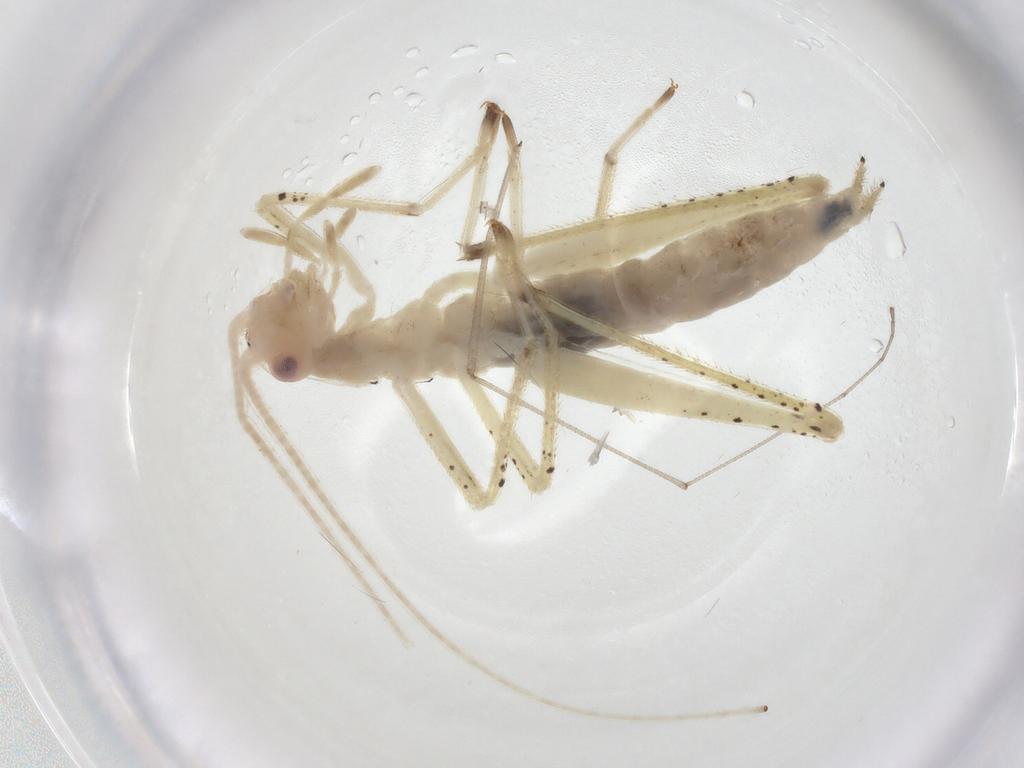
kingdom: Animalia
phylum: Arthropoda
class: Insecta
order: Orthoptera
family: Oecanthidae
